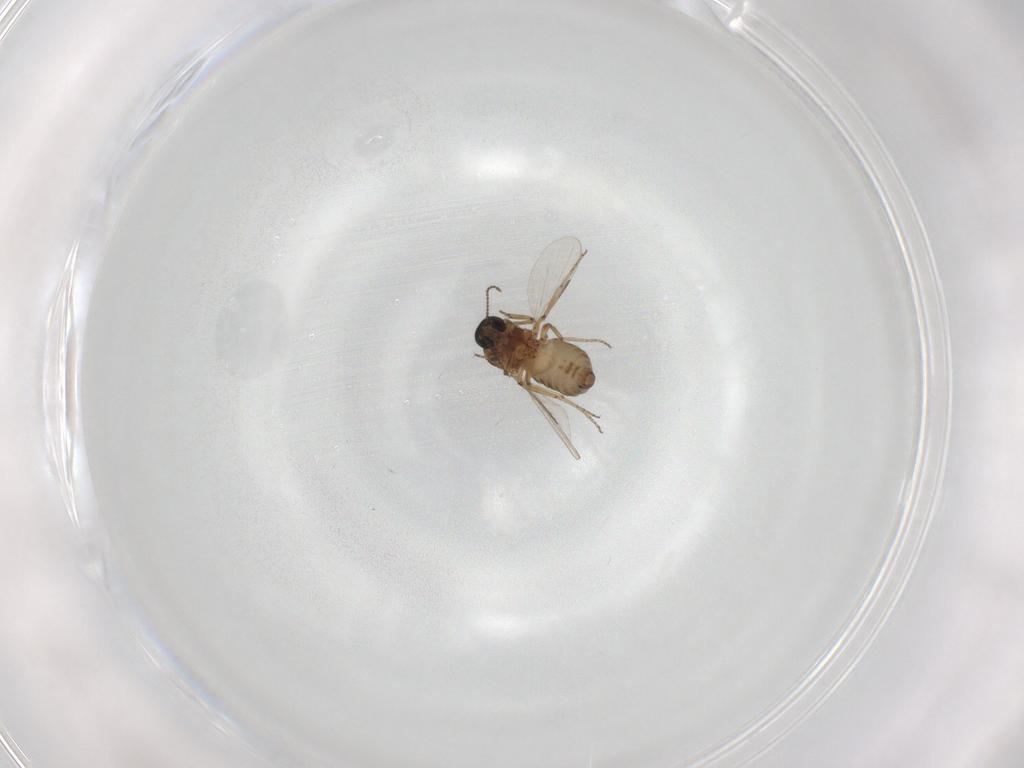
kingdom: Animalia
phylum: Arthropoda
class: Insecta
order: Diptera
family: Ceratopogonidae
